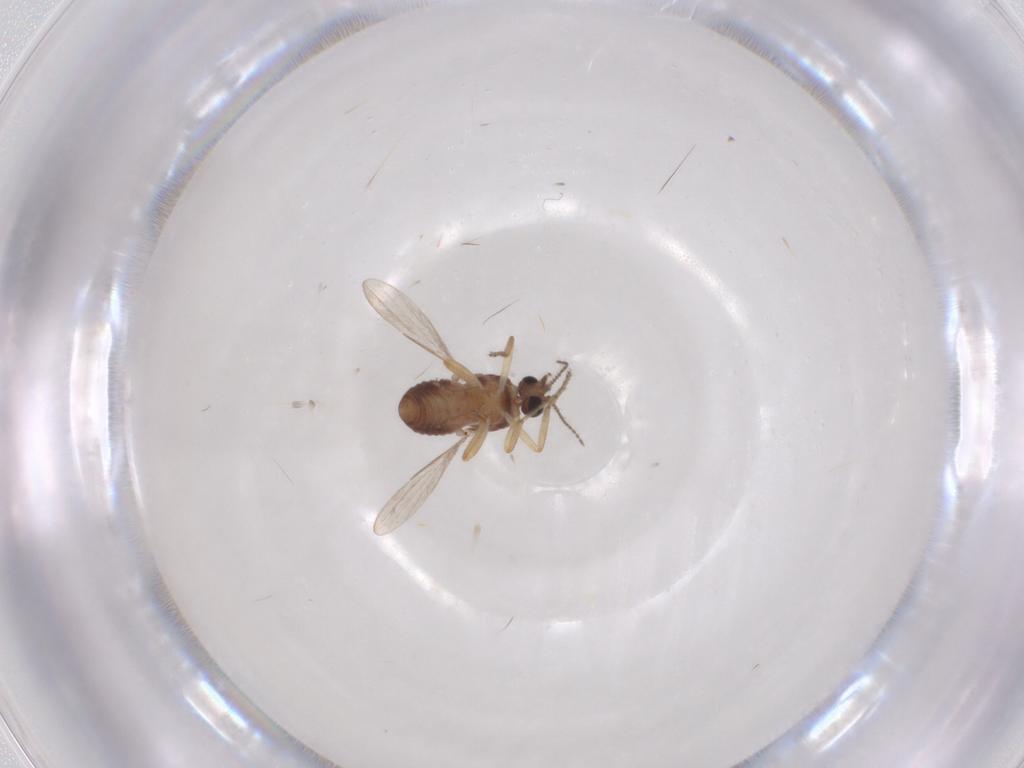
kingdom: Animalia
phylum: Arthropoda
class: Insecta
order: Diptera
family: Ceratopogonidae
